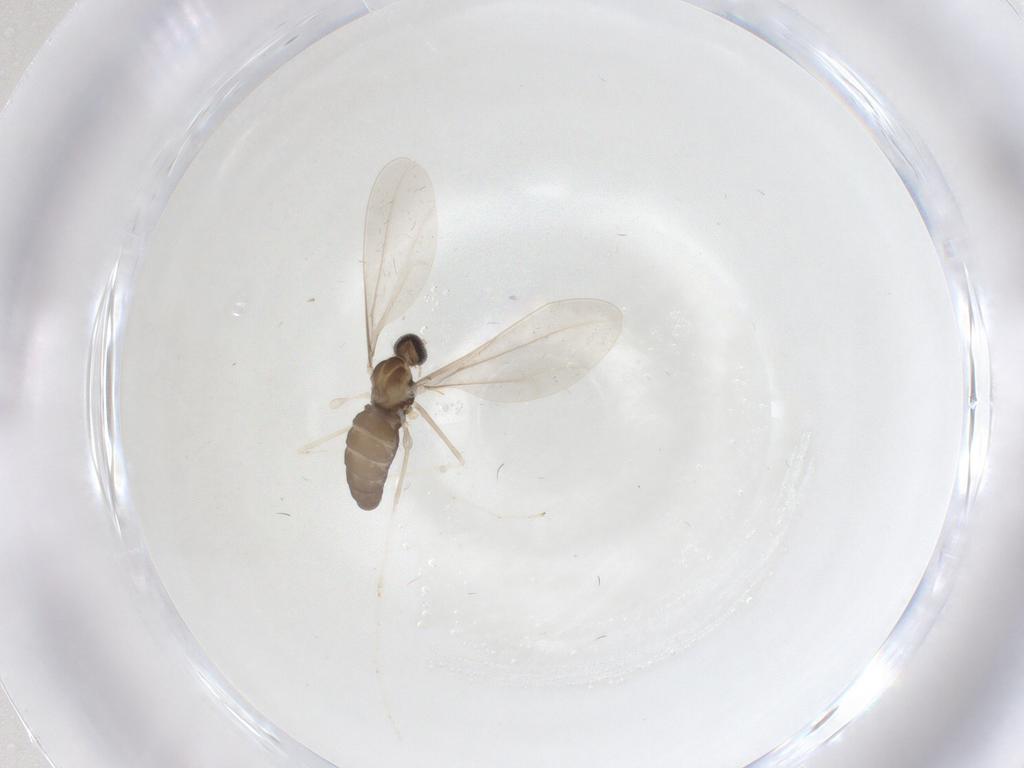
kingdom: Animalia
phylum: Arthropoda
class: Insecta
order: Diptera
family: Cecidomyiidae
